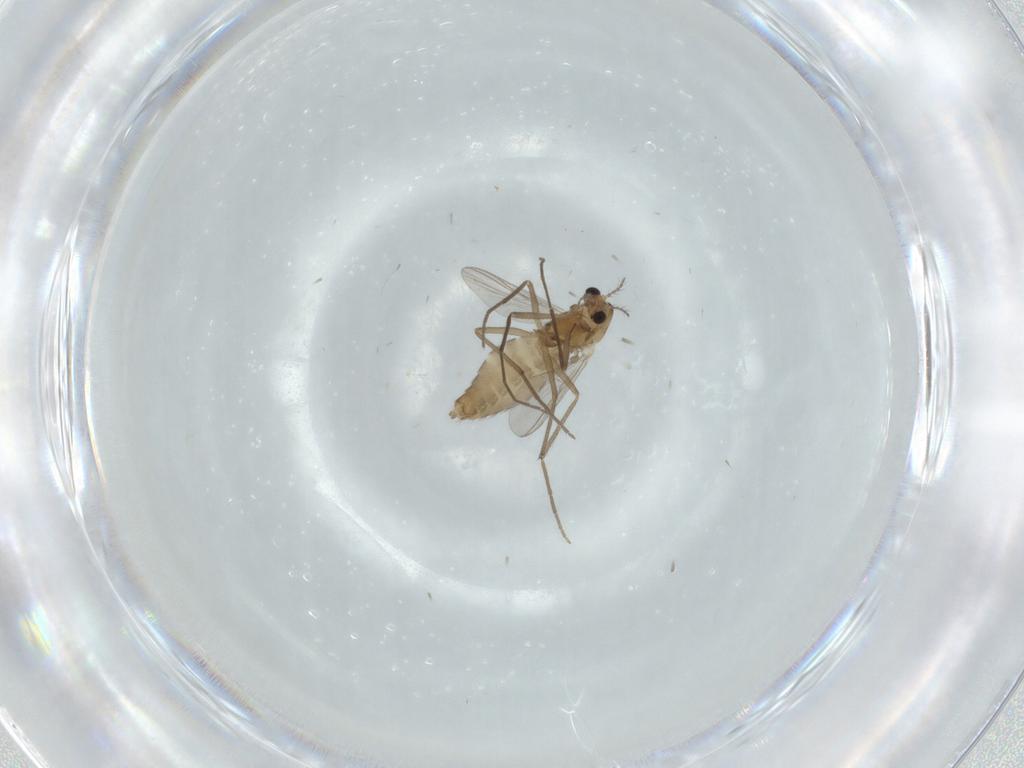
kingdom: Animalia
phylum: Arthropoda
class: Insecta
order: Diptera
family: Chironomidae
